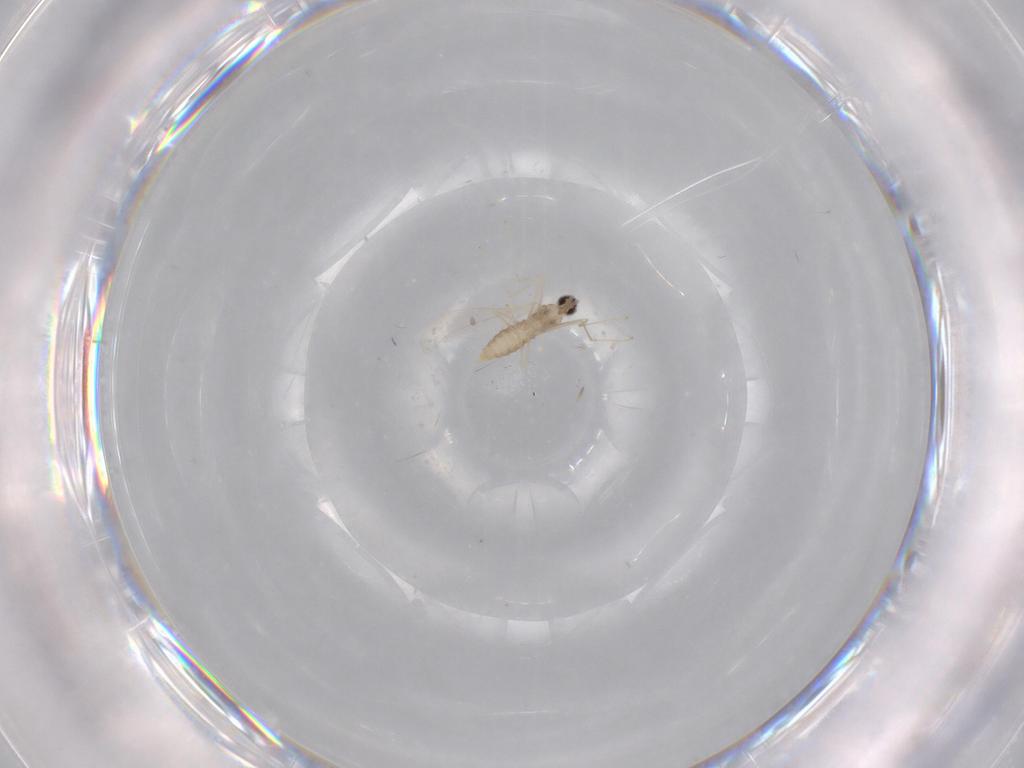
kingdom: Animalia
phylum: Arthropoda
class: Insecta
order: Diptera
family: Cecidomyiidae
